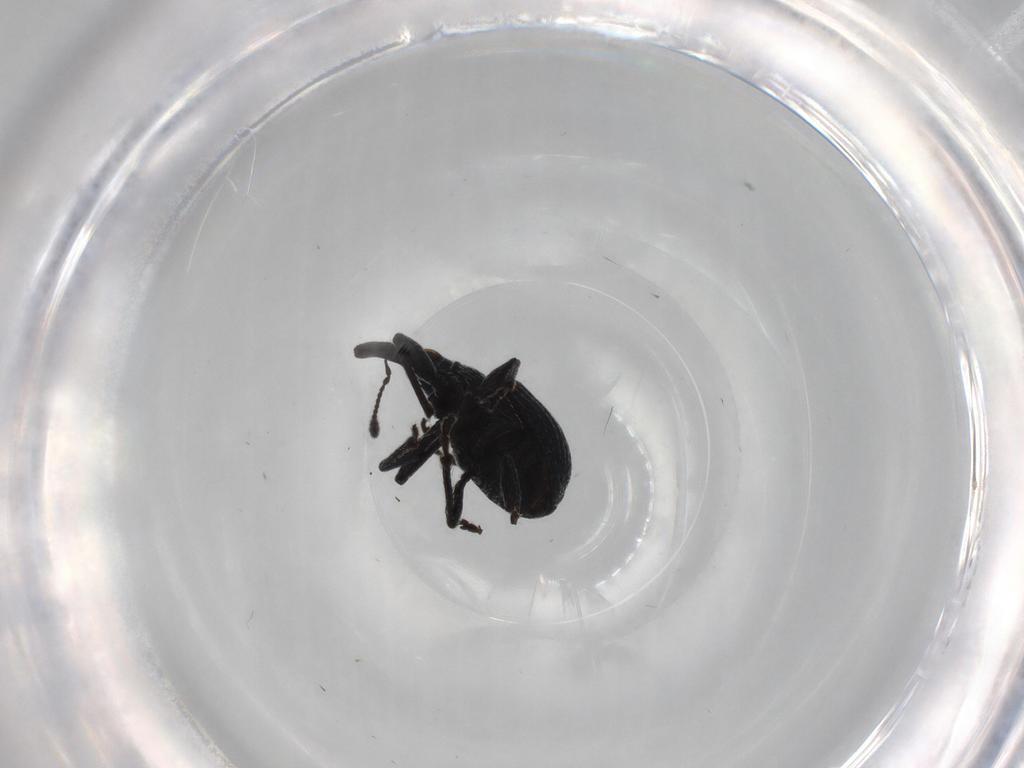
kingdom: Animalia
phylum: Arthropoda
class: Insecta
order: Coleoptera
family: Brentidae
